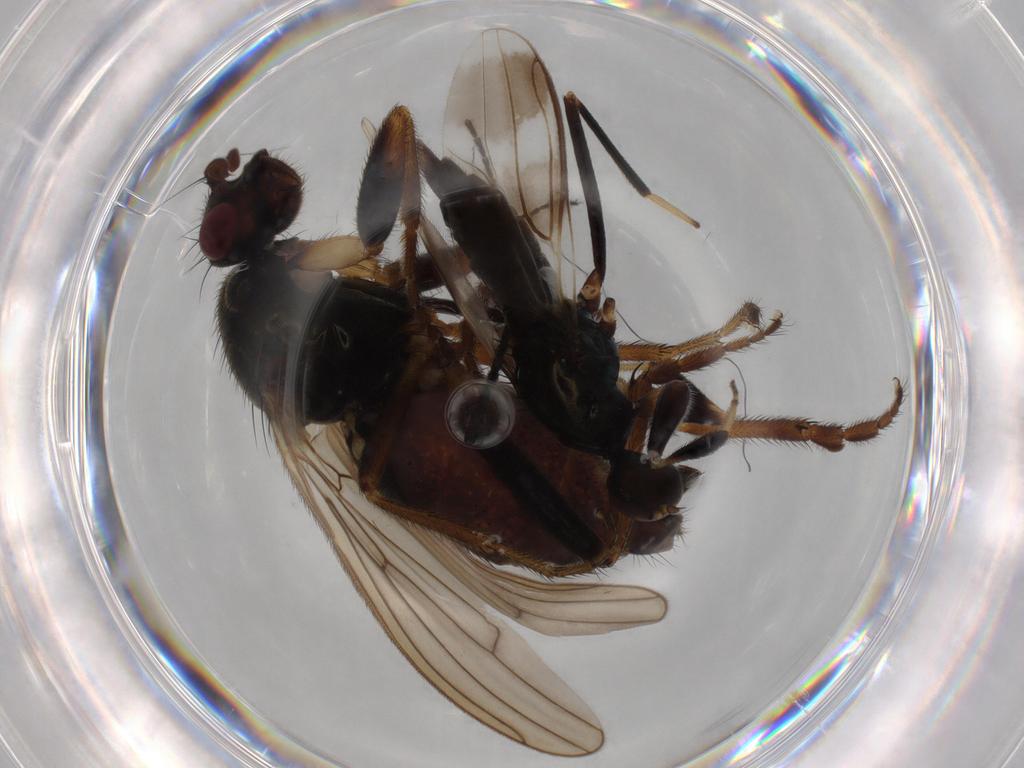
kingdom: Animalia
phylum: Arthropoda
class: Insecta
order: Diptera
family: Sphaeroceridae
